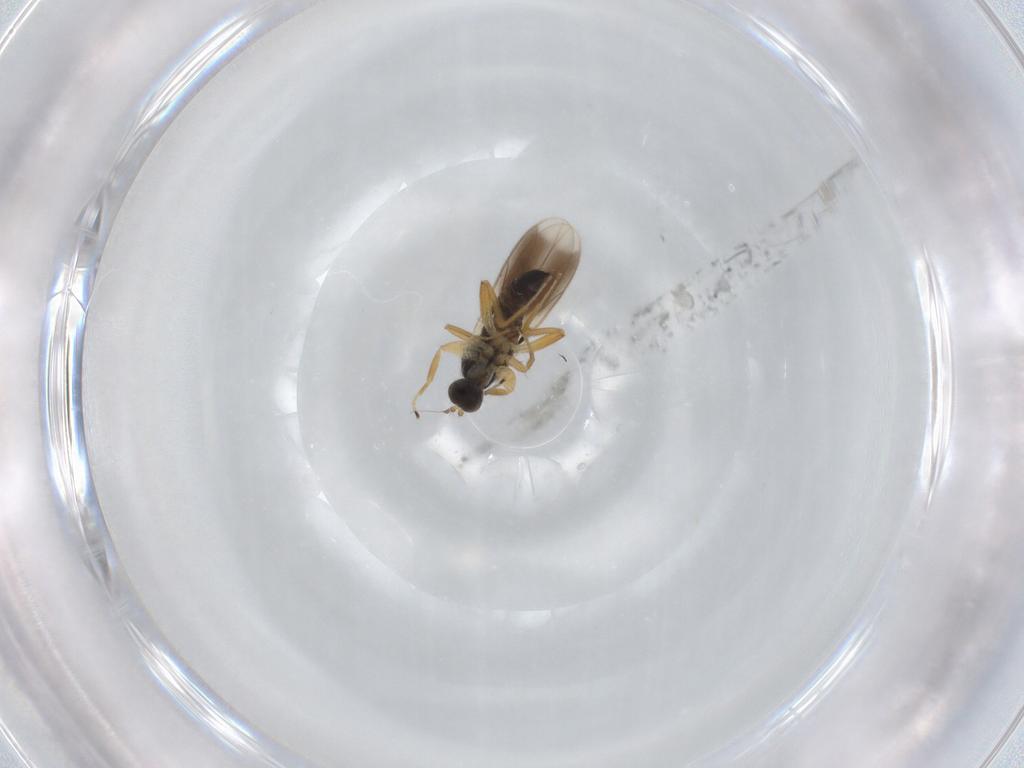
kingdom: Animalia
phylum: Arthropoda
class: Insecta
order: Diptera
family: Hybotidae
